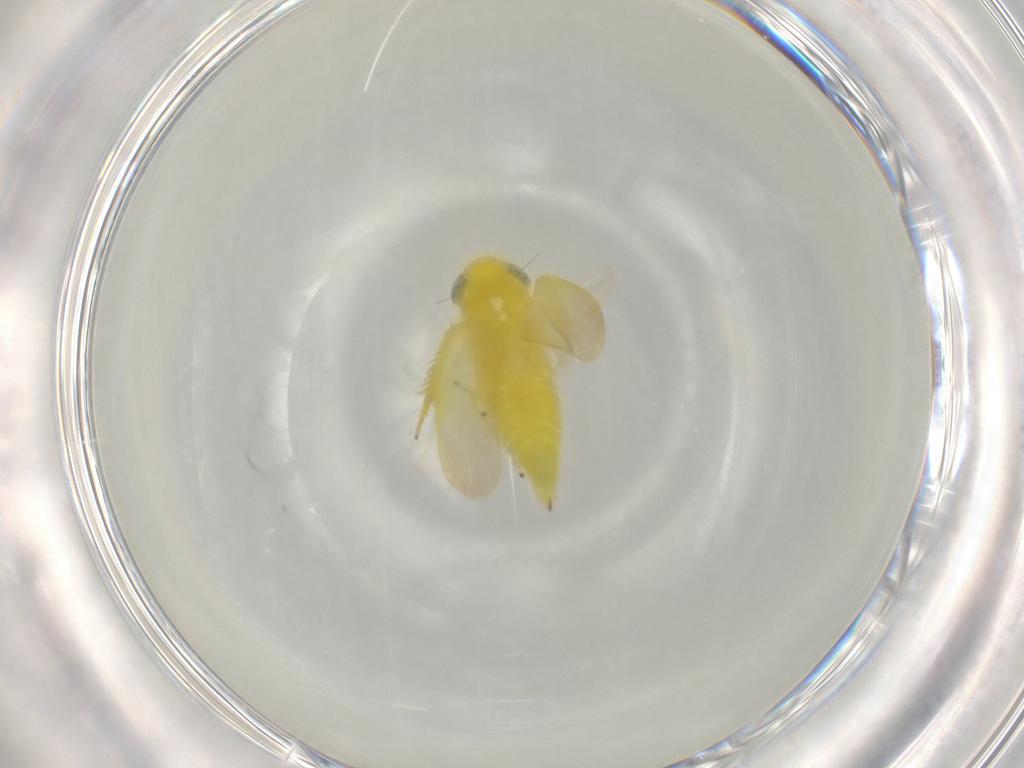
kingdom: Animalia
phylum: Arthropoda
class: Insecta
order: Hemiptera
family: Cicadellidae
